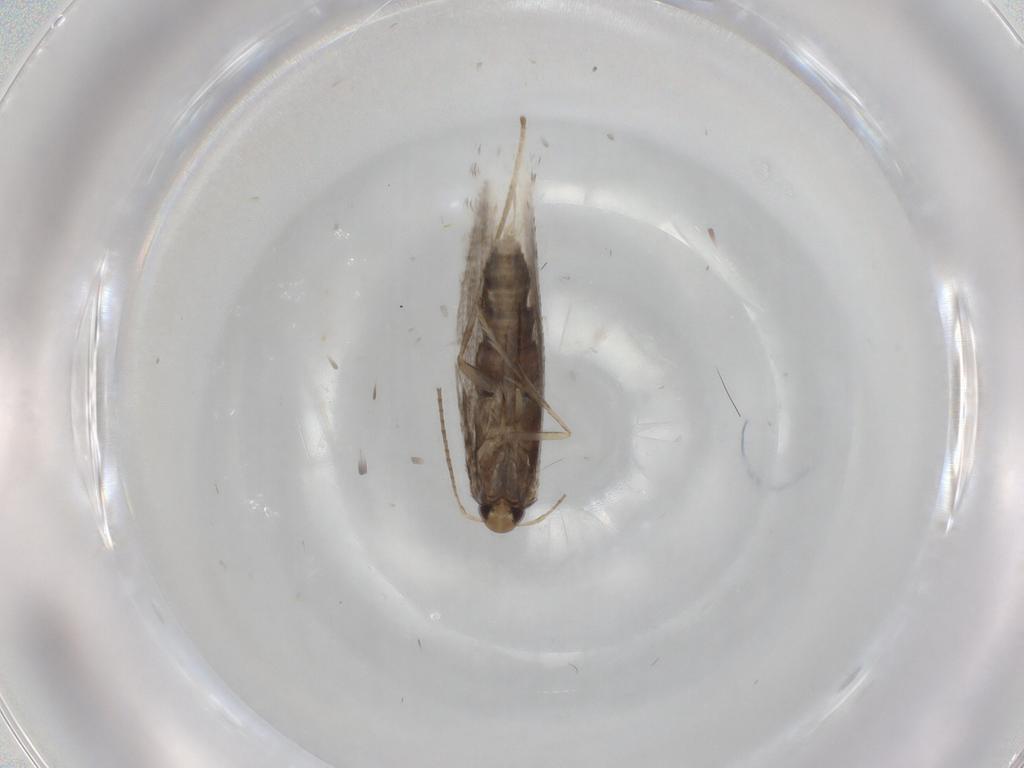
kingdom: Animalia
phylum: Arthropoda
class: Insecta
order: Lepidoptera
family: Gracillariidae
